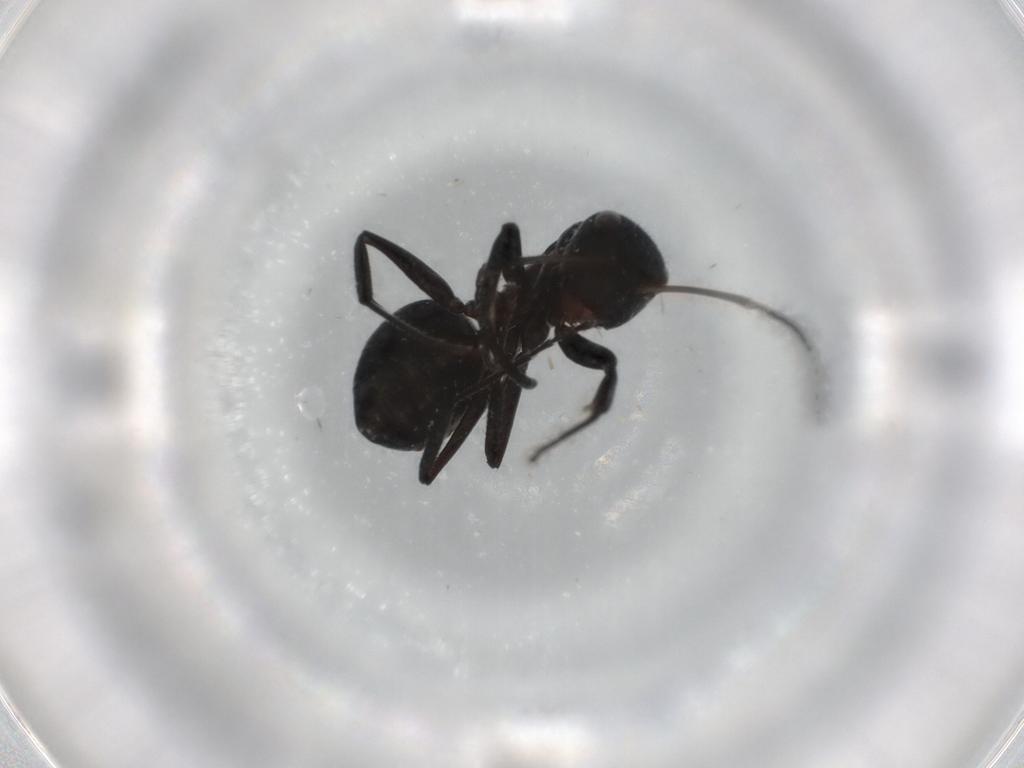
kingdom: Animalia
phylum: Arthropoda
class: Insecta
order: Hymenoptera
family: Formicidae
